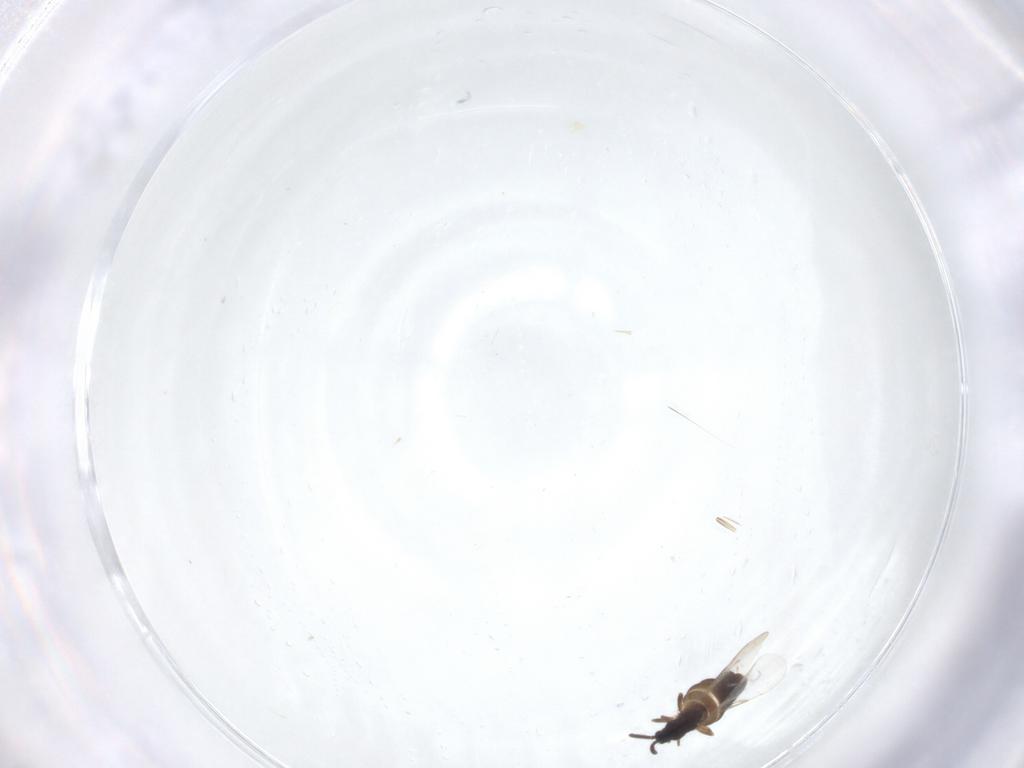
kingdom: Animalia
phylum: Arthropoda
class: Insecta
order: Diptera
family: Scatopsidae
